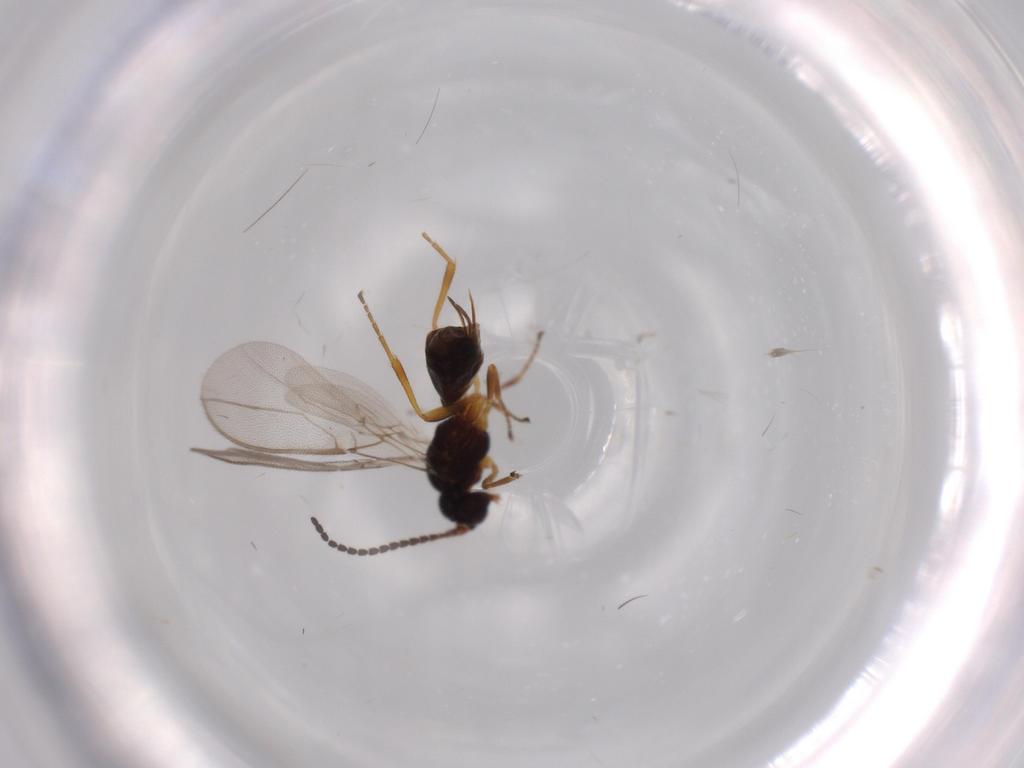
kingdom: Animalia
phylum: Arthropoda
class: Insecta
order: Hymenoptera
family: Braconidae
